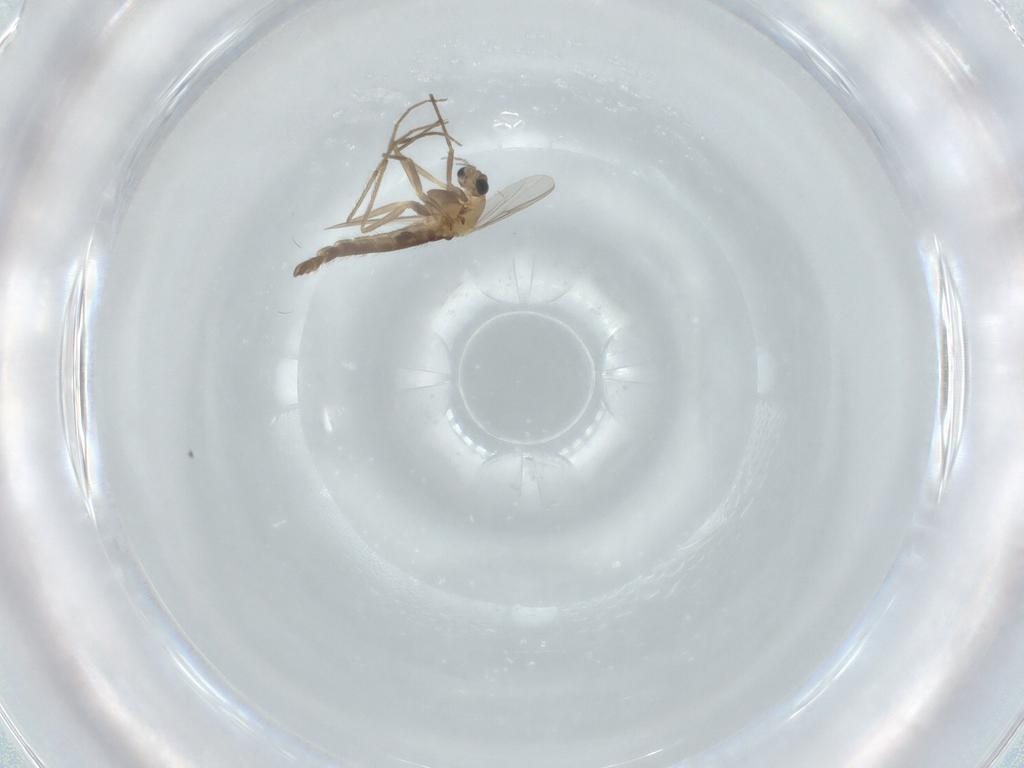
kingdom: Animalia
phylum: Arthropoda
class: Insecta
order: Diptera
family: Chironomidae
